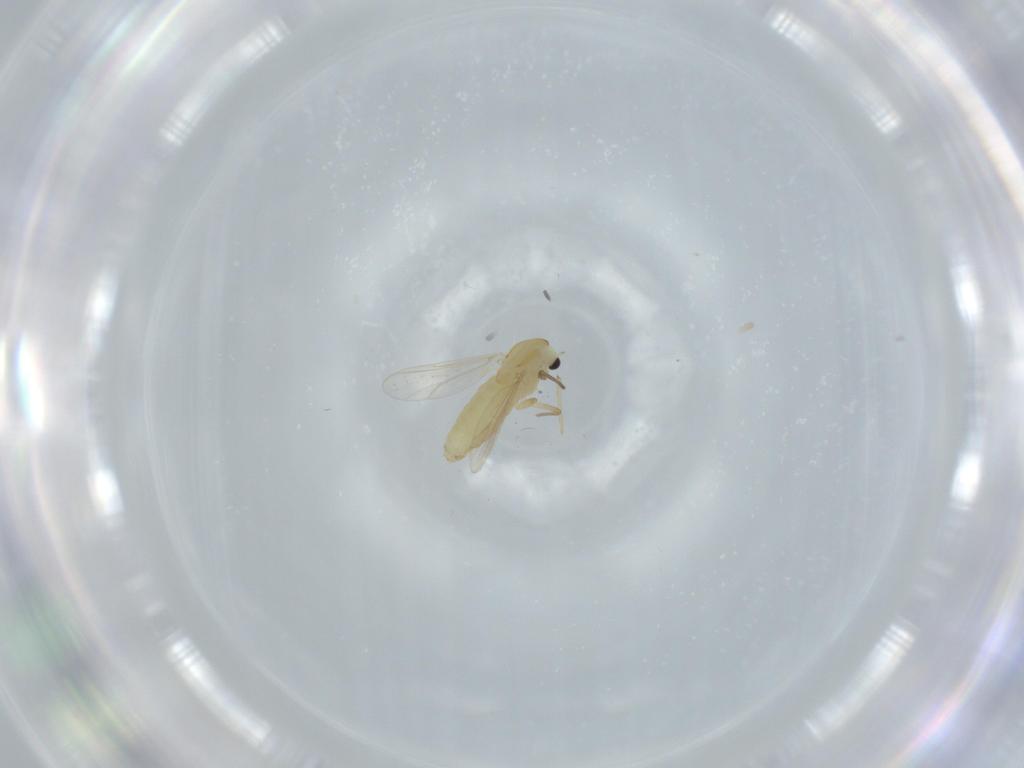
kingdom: Animalia
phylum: Arthropoda
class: Insecta
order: Diptera
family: Chironomidae
